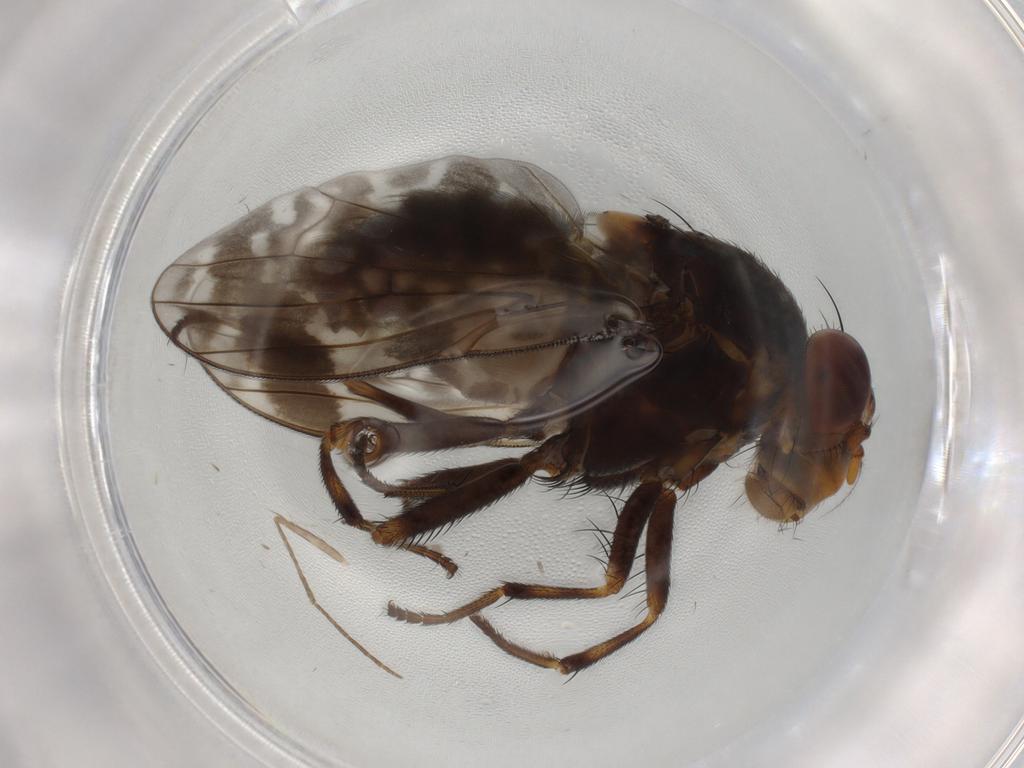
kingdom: Animalia
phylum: Arthropoda
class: Insecta
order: Diptera
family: Psychodidae
